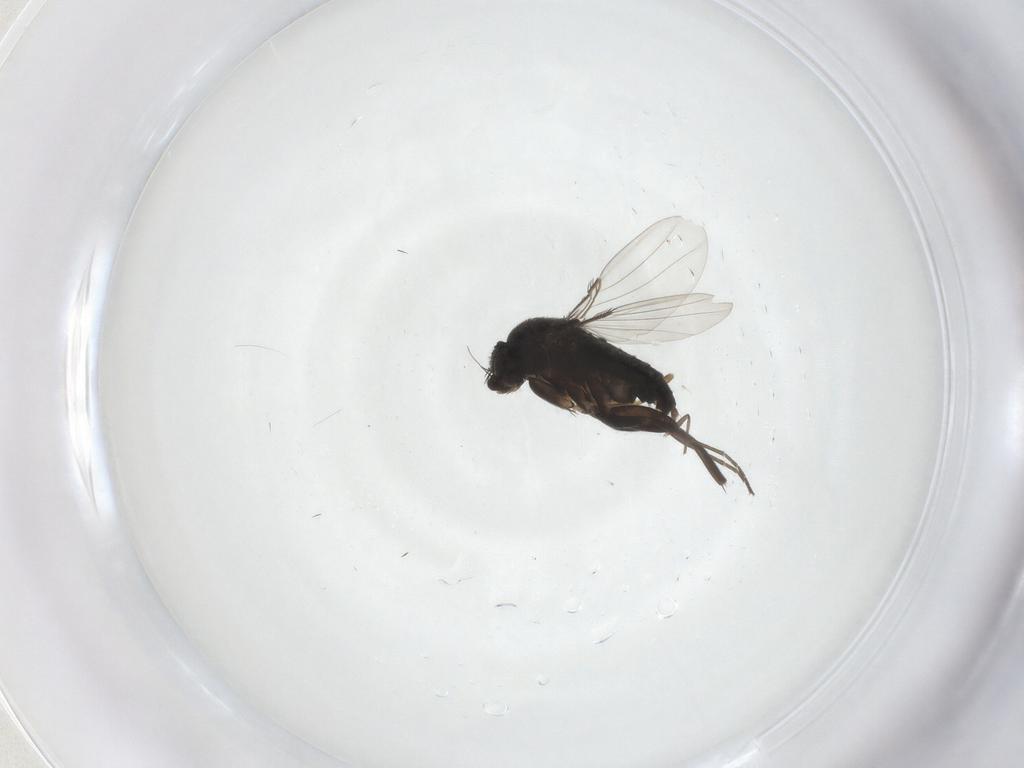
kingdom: Animalia
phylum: Arthropoda
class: Insecta
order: Diptera
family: Phoridae
